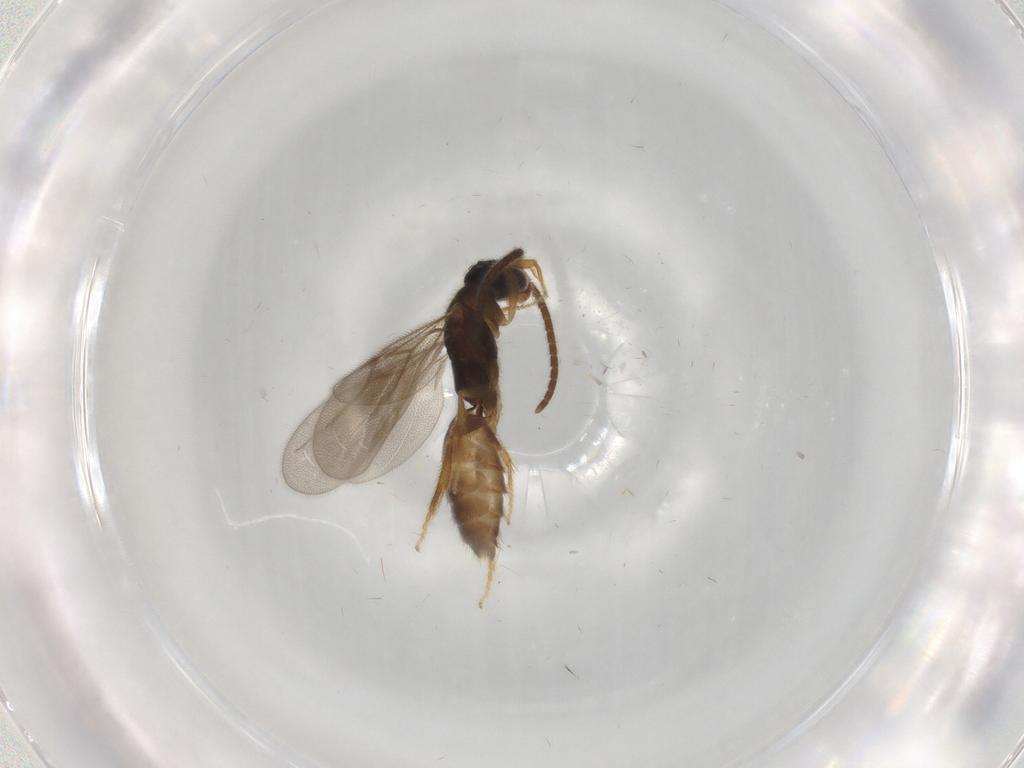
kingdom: Animalia
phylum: Arthropoda
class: Insecta
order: Hymenoptera
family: Bethylidae
